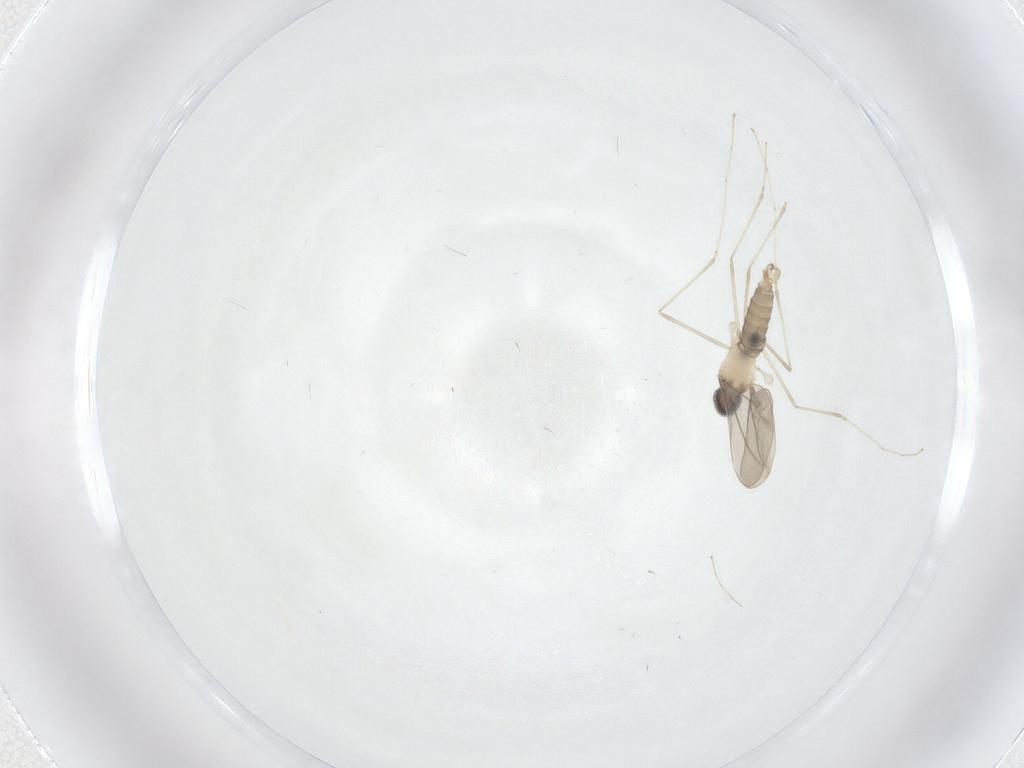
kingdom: Animalia
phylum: Arthropoda
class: Insecta
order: Diptera
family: Cecidomyiidae
